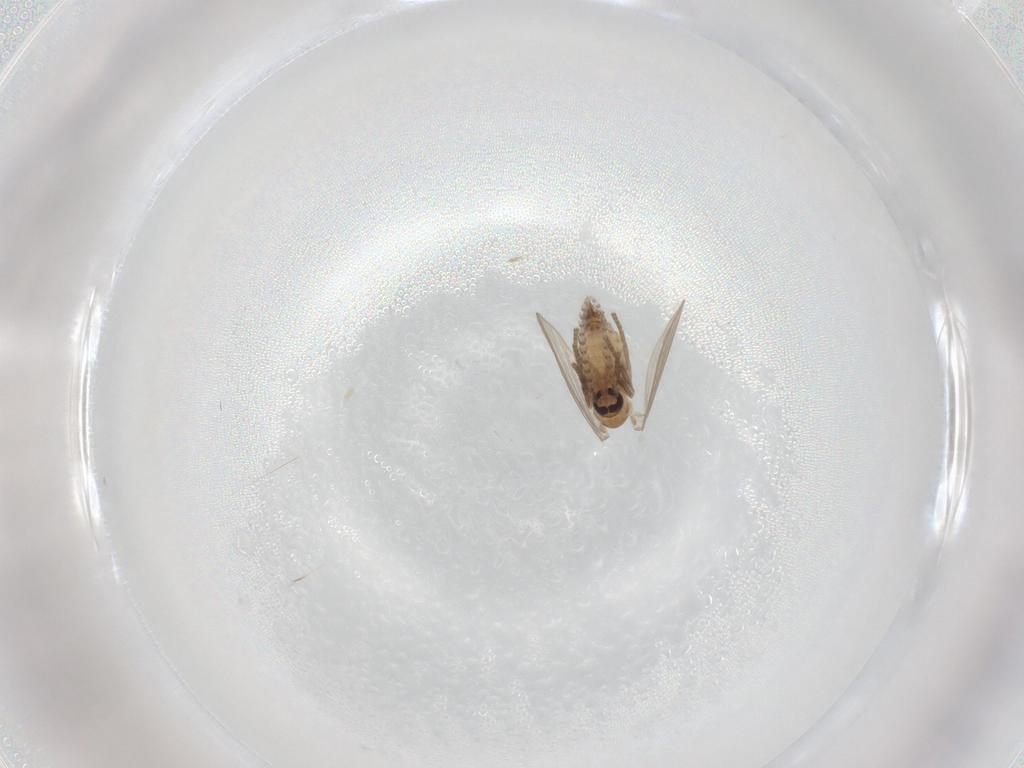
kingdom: Animalia
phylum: Arthropoda
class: Insecta
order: Diptera
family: Psychodidae
